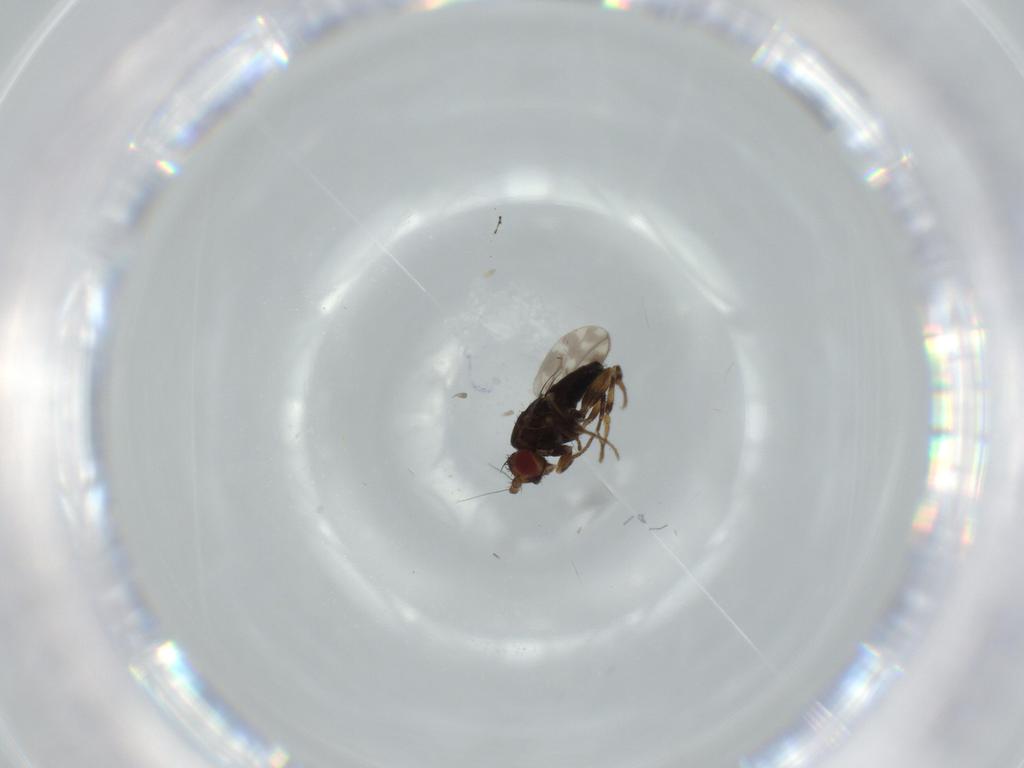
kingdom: Animalia
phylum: Arthropoda
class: Insecta
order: Diptera
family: Sphaeroceridae
